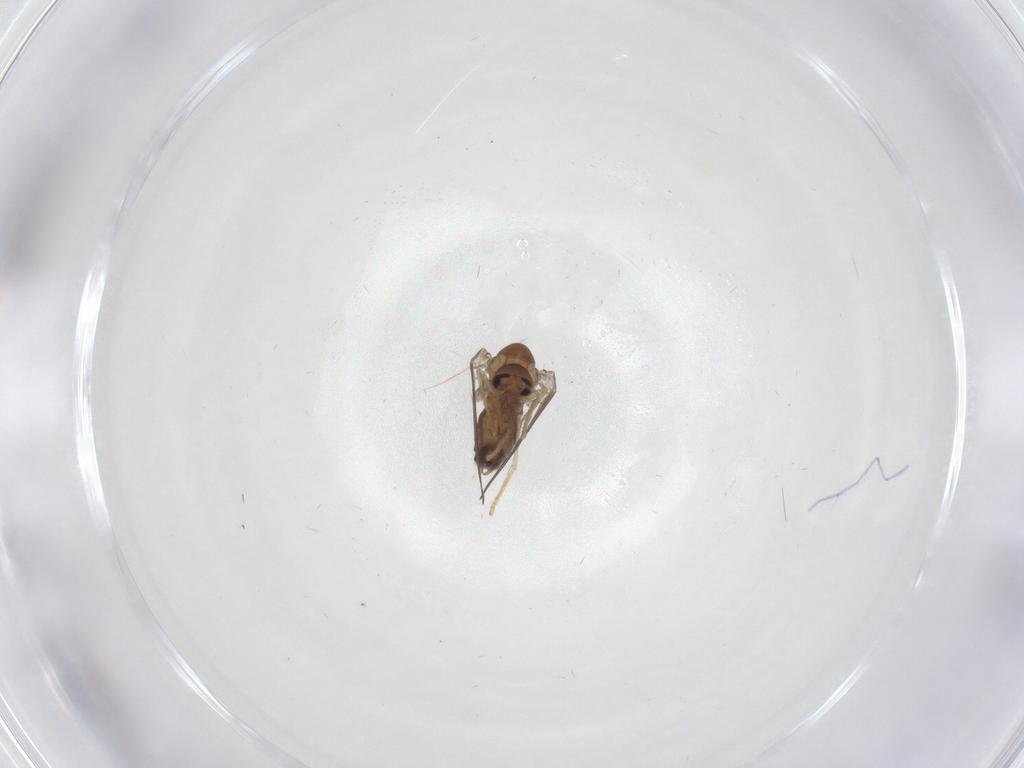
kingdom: Animalia
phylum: Arthropoda
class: Insecta
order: Diptera
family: Psychodidae
